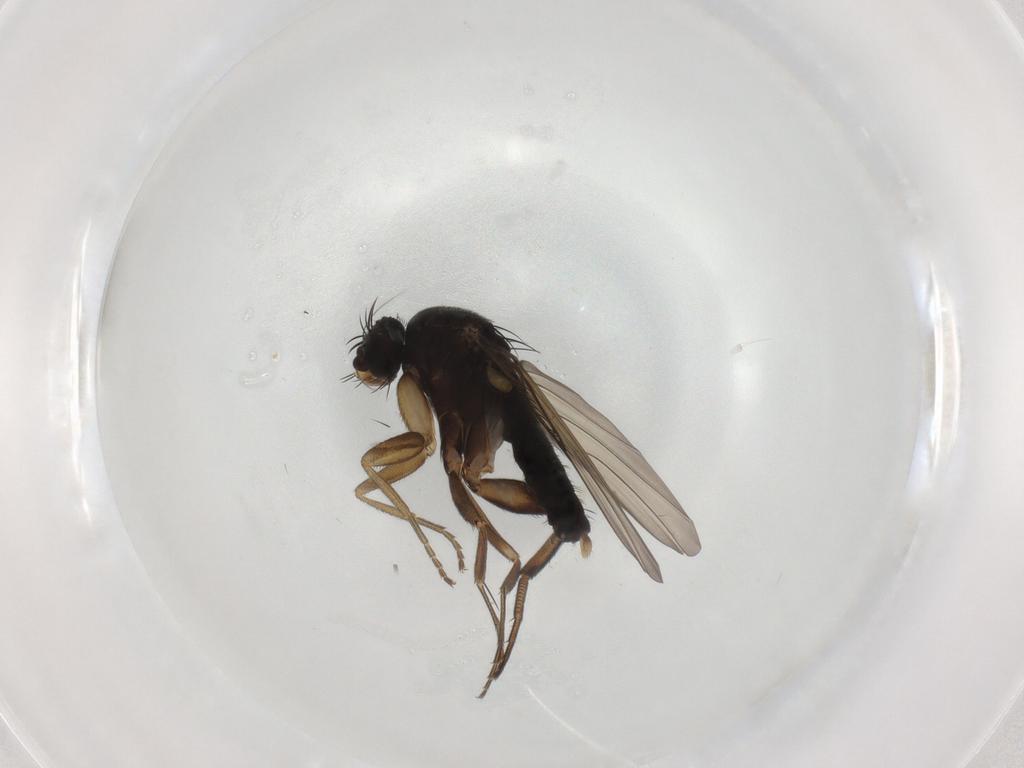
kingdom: Animalia
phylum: Arthropoda
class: Insecta
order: Diptera
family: Phoridae
